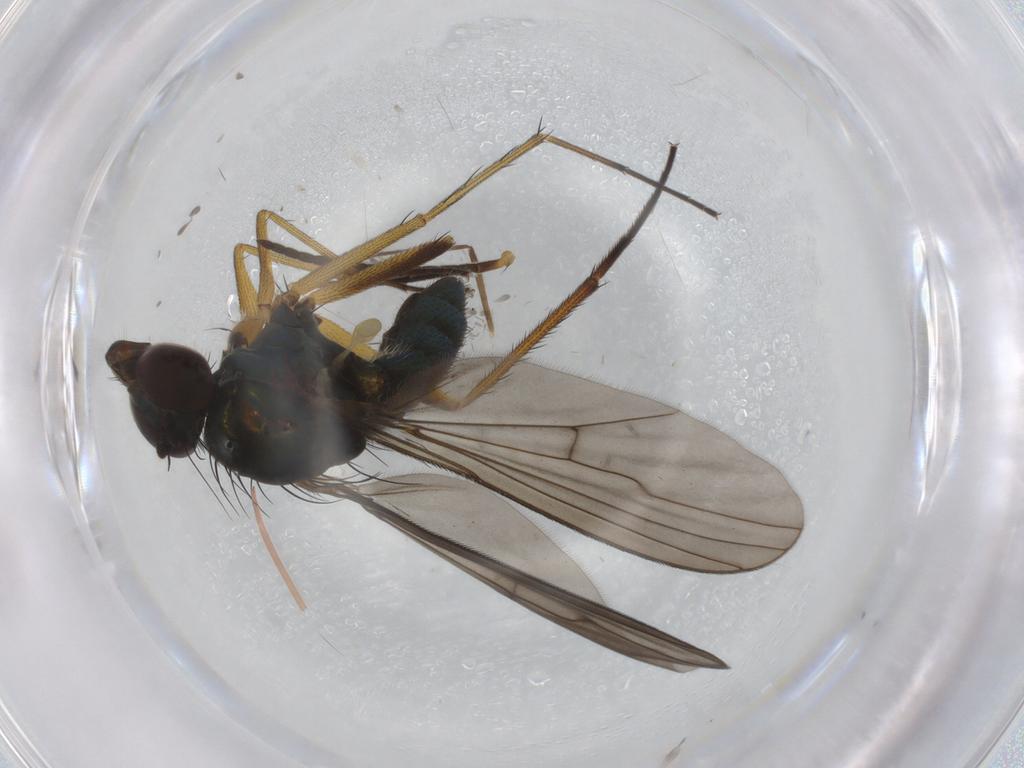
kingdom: Animalia
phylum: Arthropoda
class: Insecta
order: Diptera
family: Dolichopodidae
